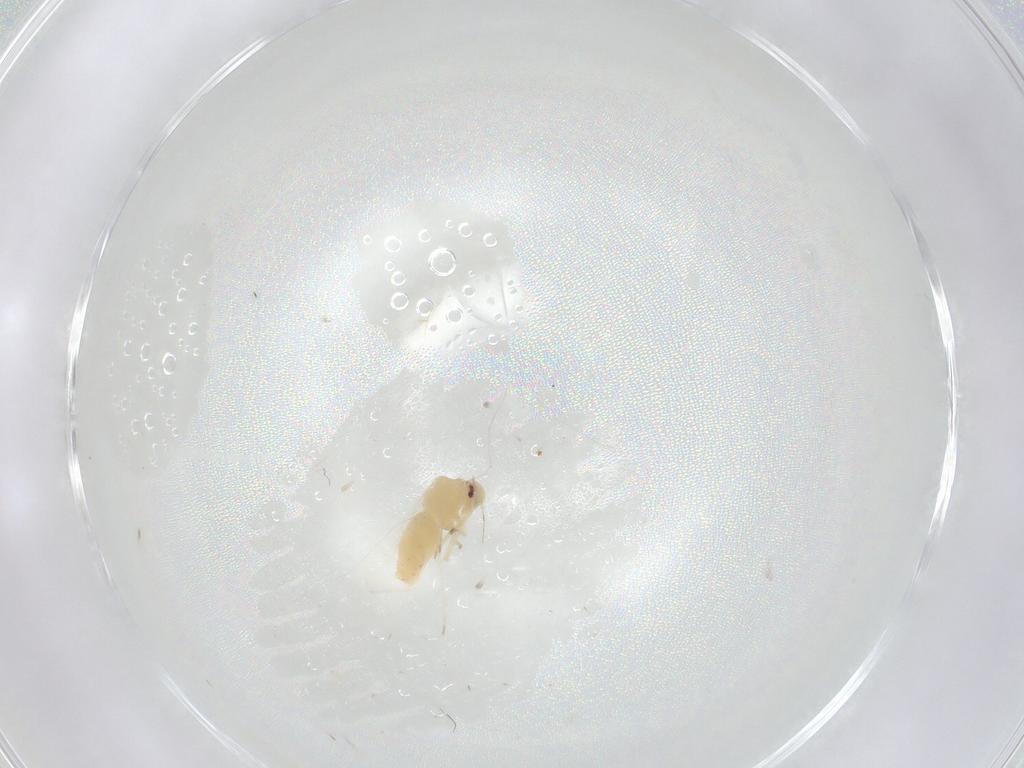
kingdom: Animalia
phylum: Arthropoda
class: Insecta
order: Hemiptera
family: Aleyrodidae
